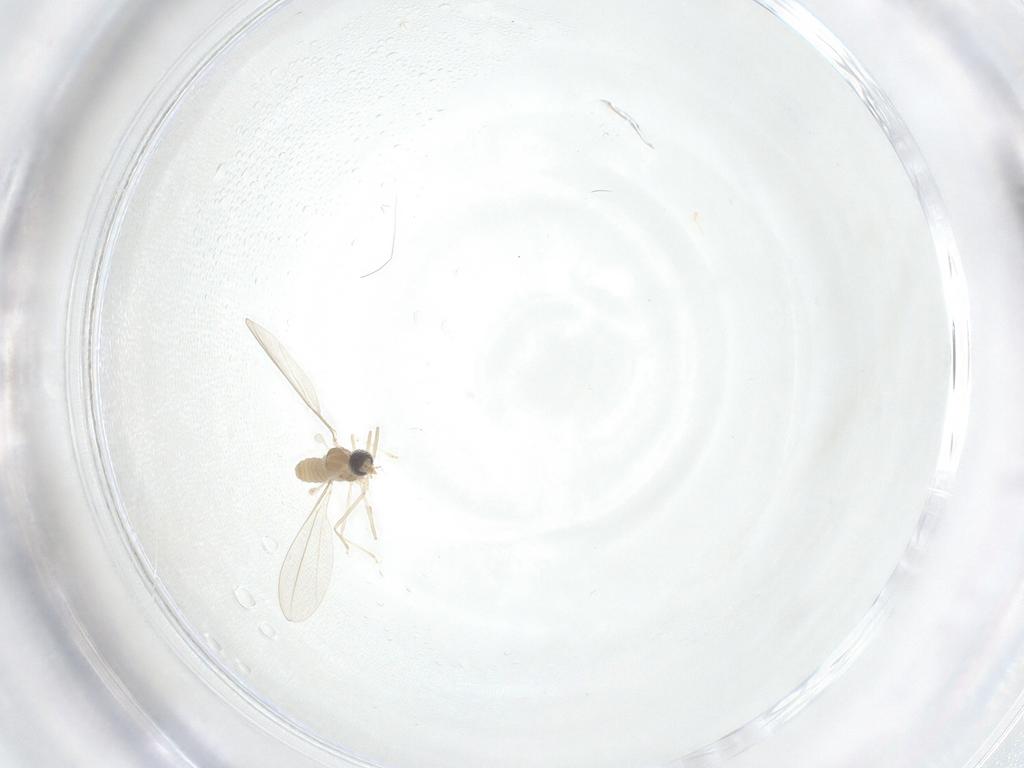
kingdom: Animalia
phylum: Arthropoda
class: Insecta
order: Diptera
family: Cecidomyiidae
